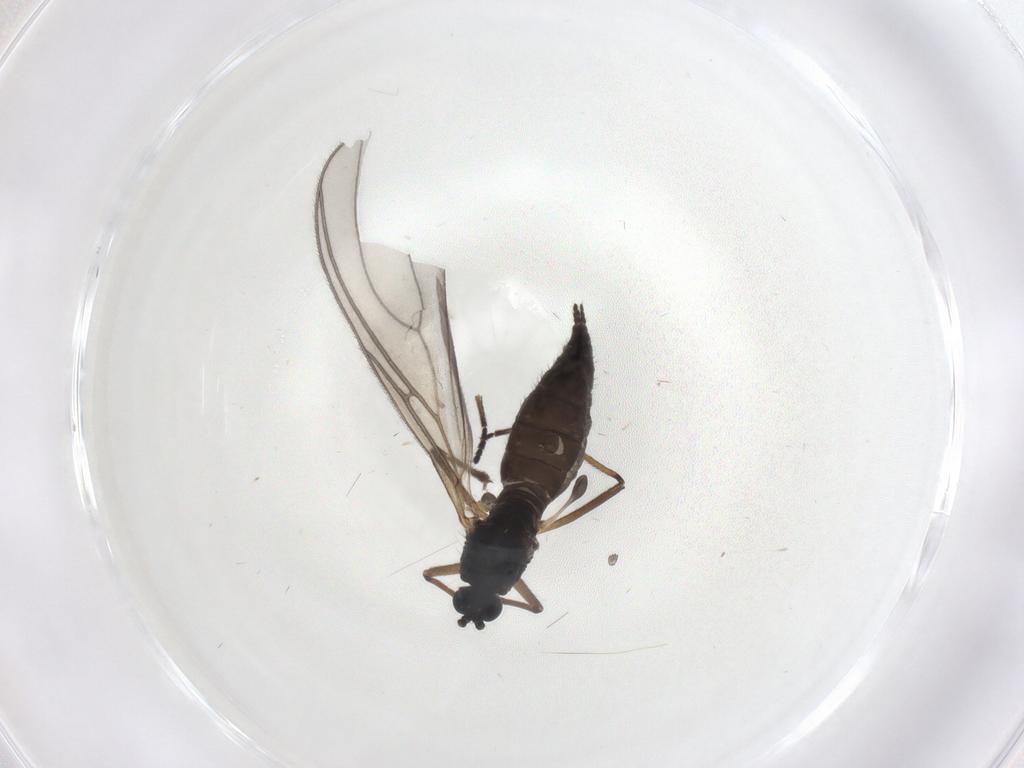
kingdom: Animalia
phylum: Arthropoda
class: Insecta
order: Diptera
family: Sciaridae
